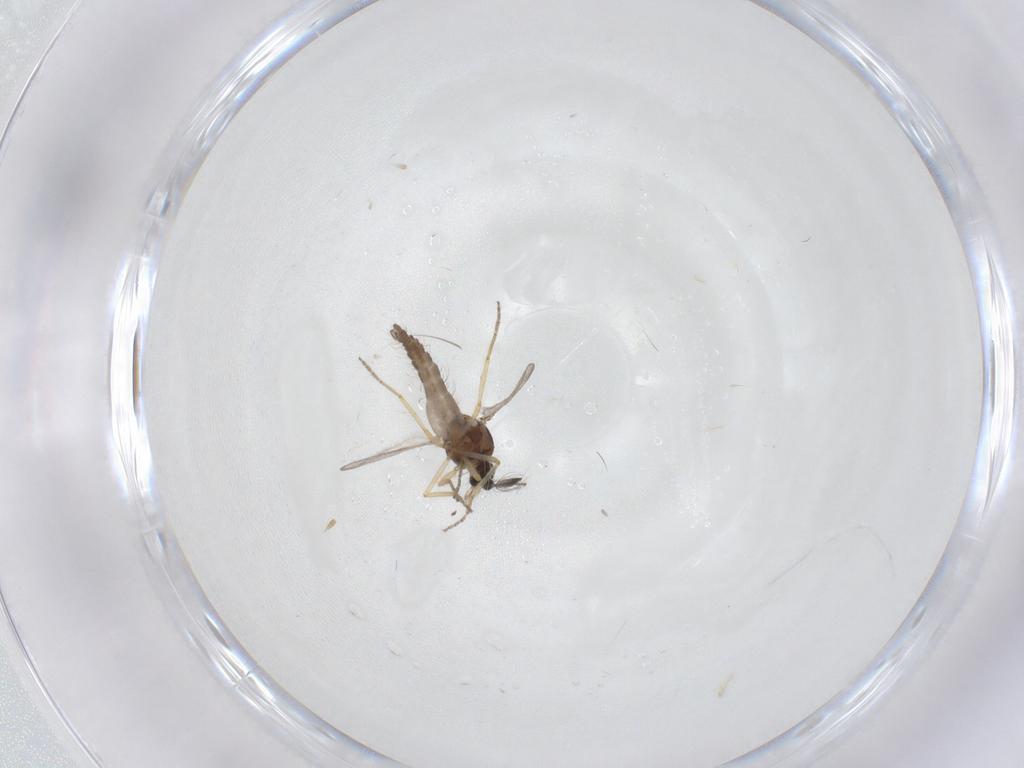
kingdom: Animalia
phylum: Arthropoda
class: Insecta
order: Diptera
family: Ceratopogonidae
